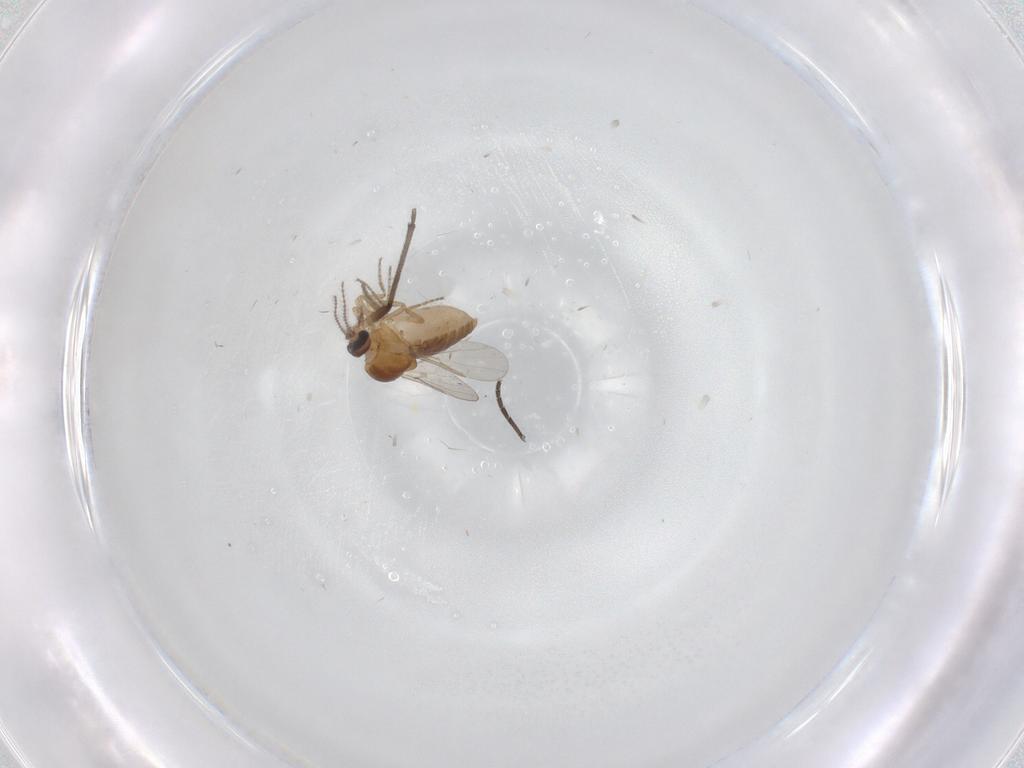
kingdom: Animalia
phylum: Arthropoda
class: Insecta
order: Diptera
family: Ceratopogonidae
